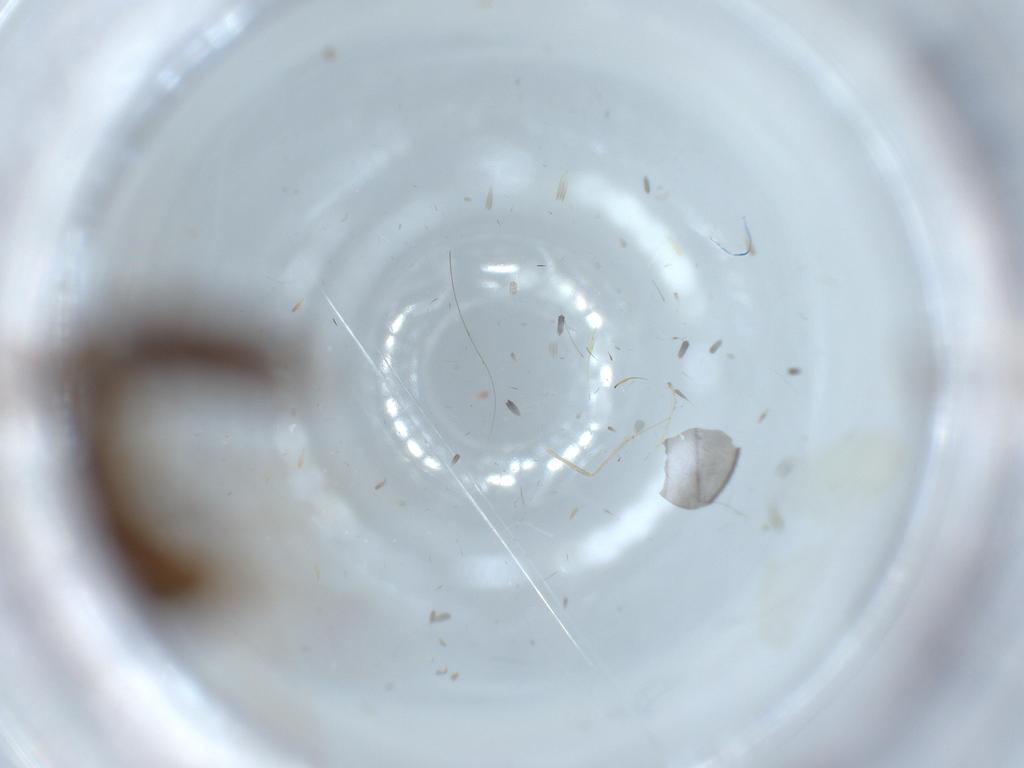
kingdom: Animalia
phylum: Arthropoda
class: Insecta
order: Hymenoptera
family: Formicidae
